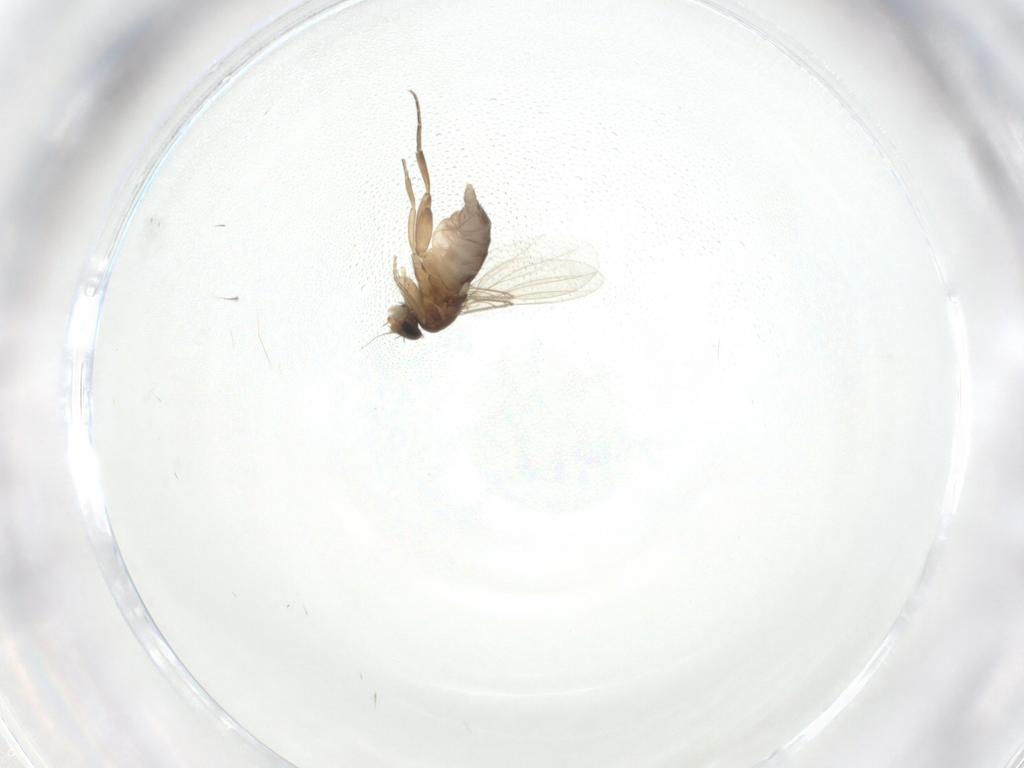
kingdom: Animalia
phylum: Arthropoda
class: Insecta
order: Diptera
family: Phoridae
